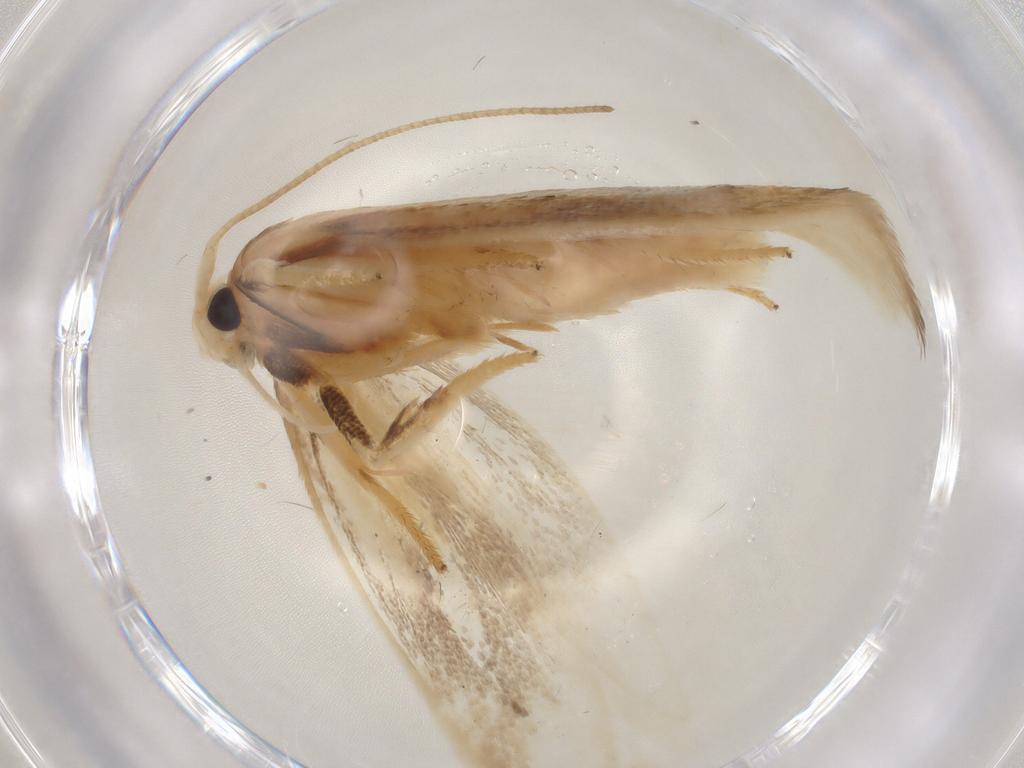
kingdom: Animalia
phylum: Arthropoda
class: Insecta
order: Lepidoptera
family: Geometridae
